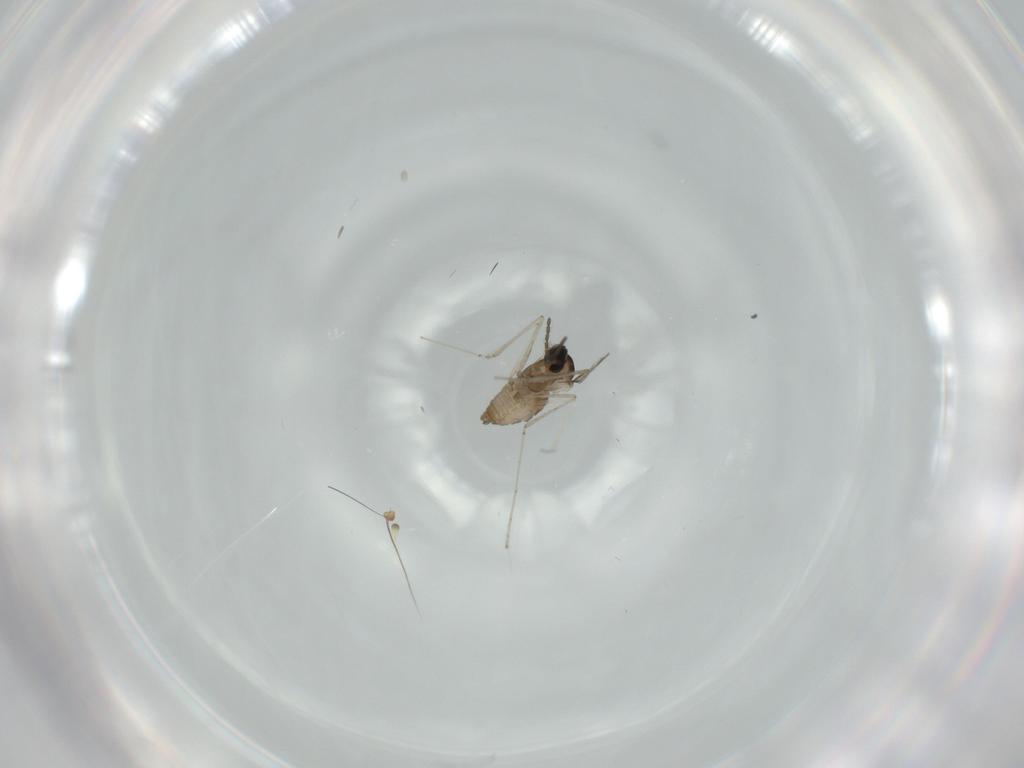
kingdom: Animalia
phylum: Arthropoda
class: Insecta
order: Diptera
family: Cecidomyiidae
